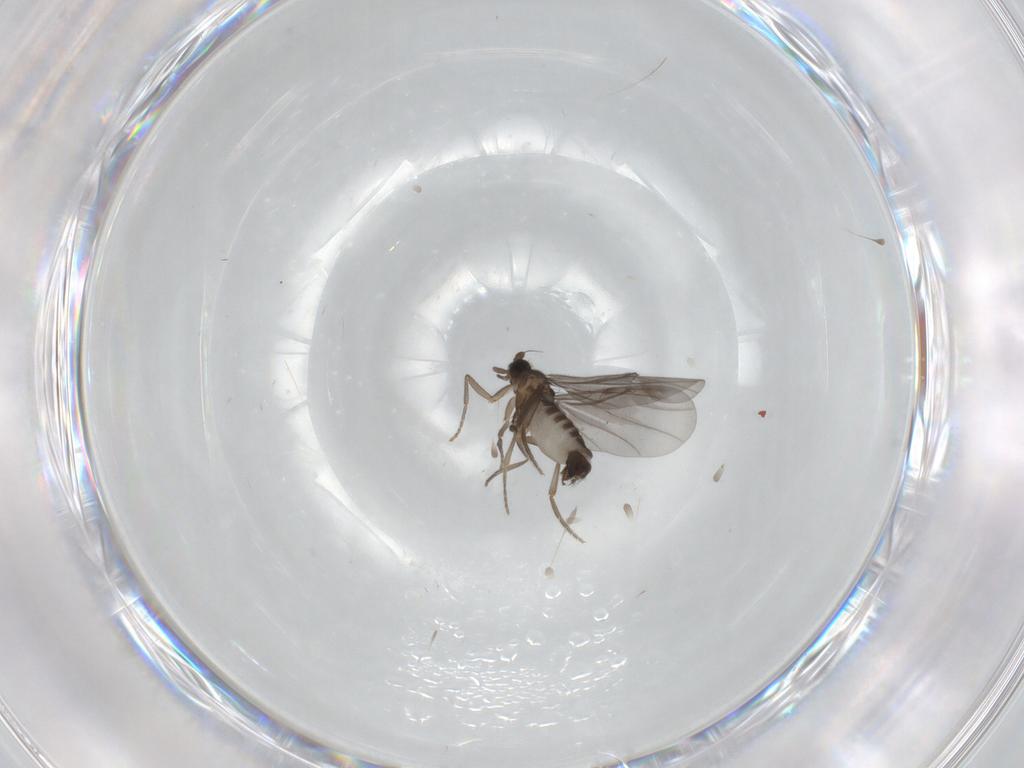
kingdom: Animalia
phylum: Arthropoda
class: Insecta
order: Diptera
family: Phoridae
